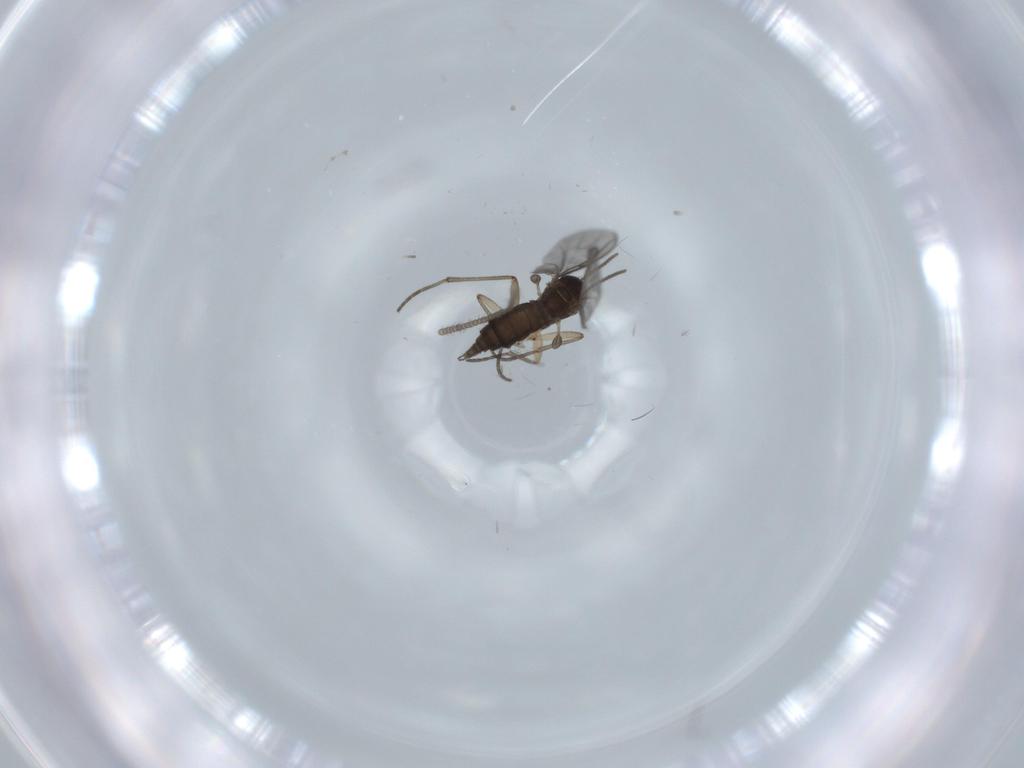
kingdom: Animalia
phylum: Arthropoda
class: Insecta
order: Diptera
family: Sciaridae
